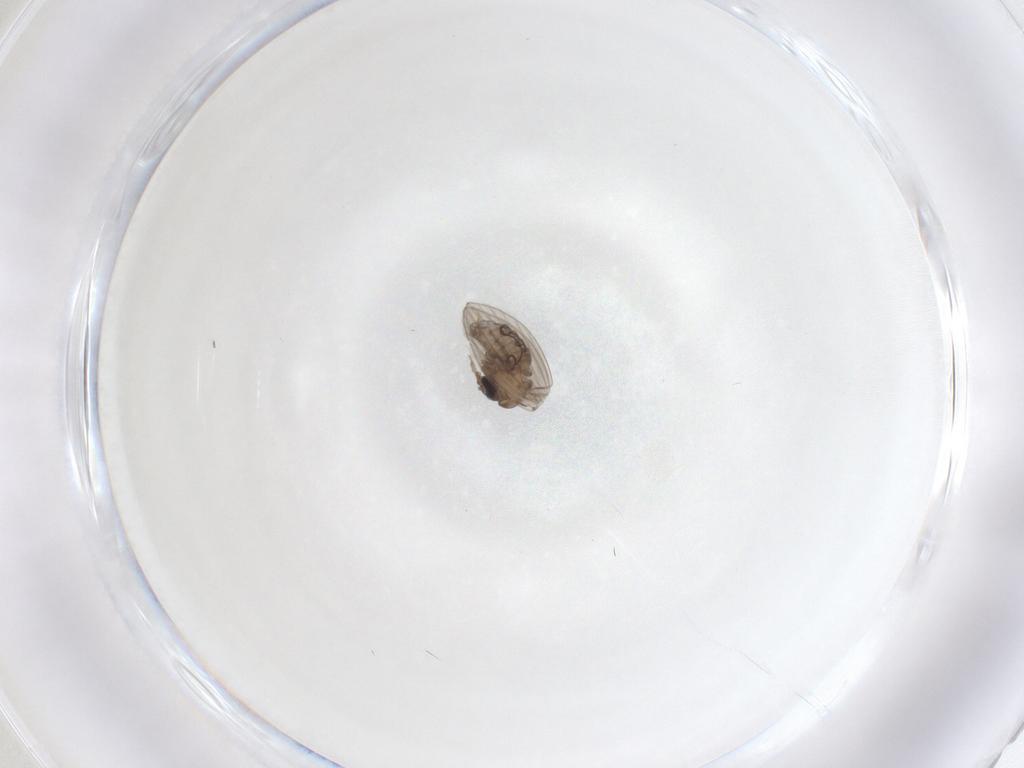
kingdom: Animalia
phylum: Arthropoda
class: Insecta
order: Diptera
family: Psychodidae
